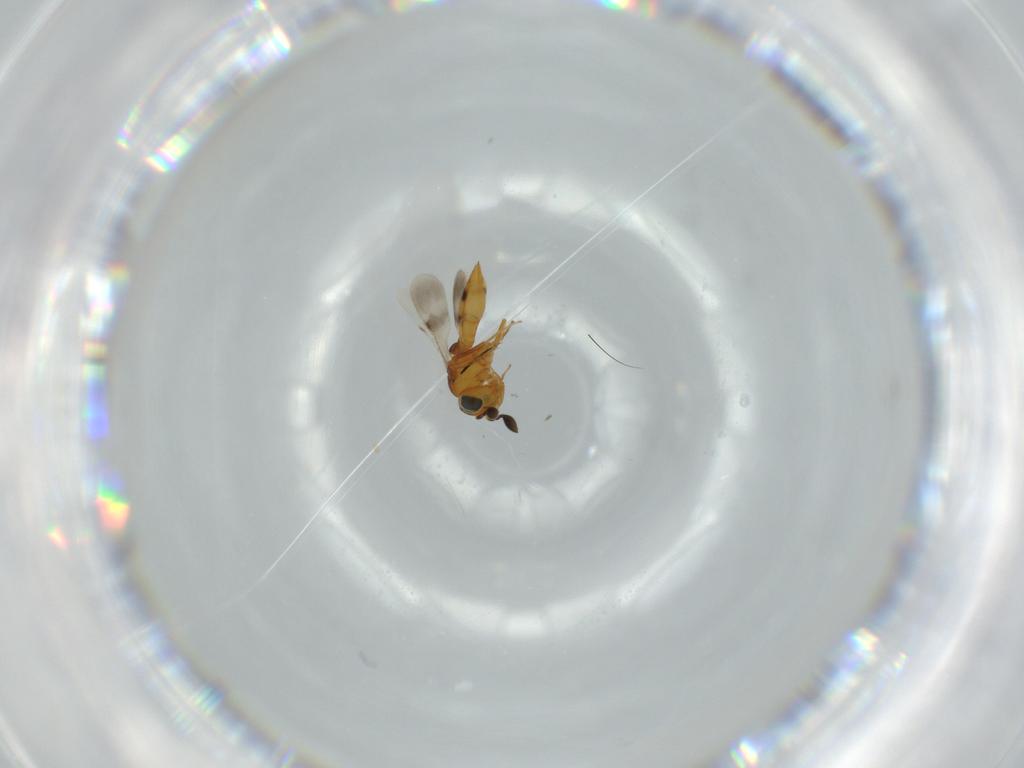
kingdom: Animalia
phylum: Arthropoda
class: Insecta
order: Hymenoptera
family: Scelionidae
